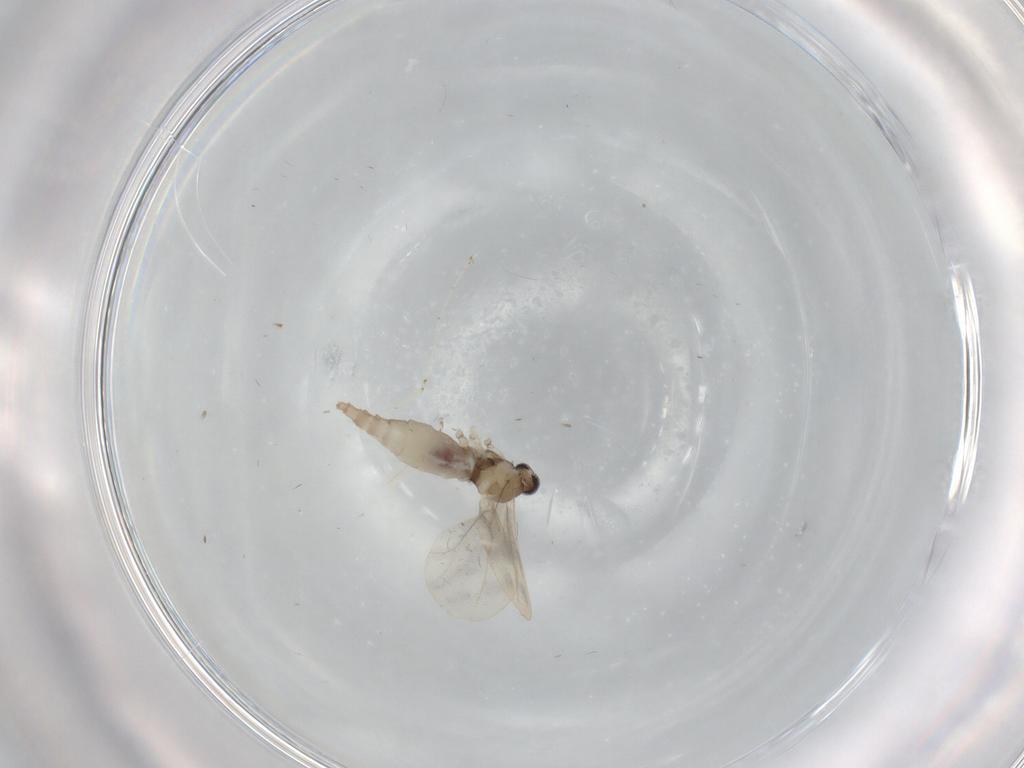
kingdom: Animalia
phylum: Arthropoda
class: Insecta
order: Diptera
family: Cecidomyiidae
